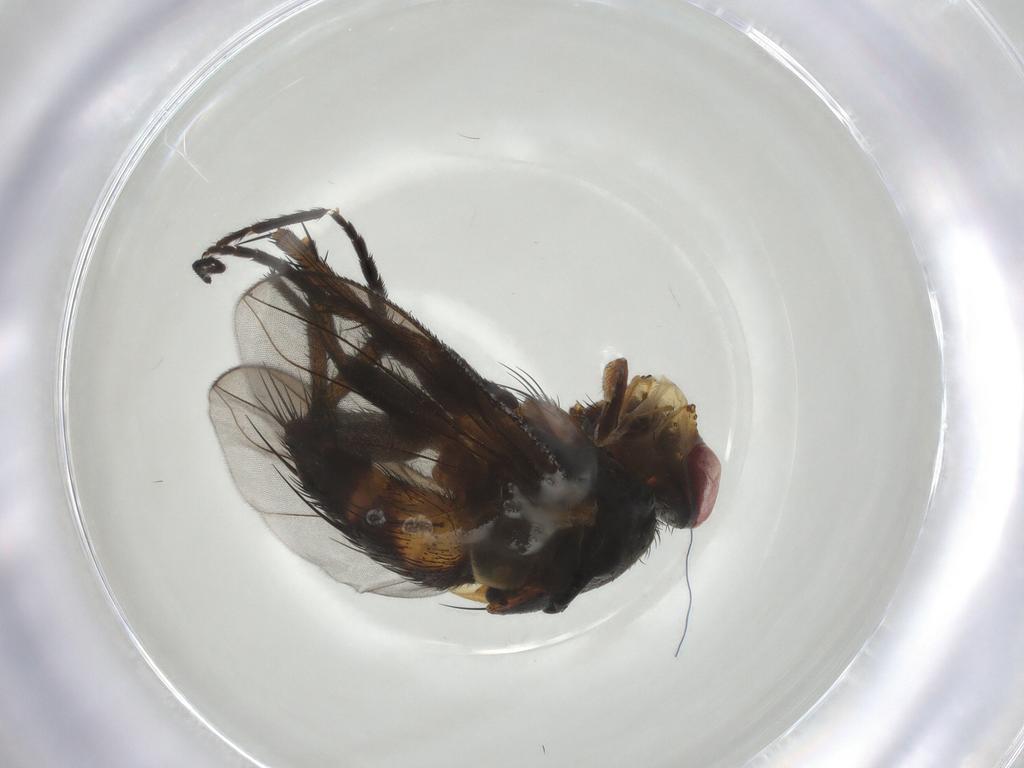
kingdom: Animalia
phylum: Arthropoda
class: Insecta
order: Diptera
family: Tachinidae
